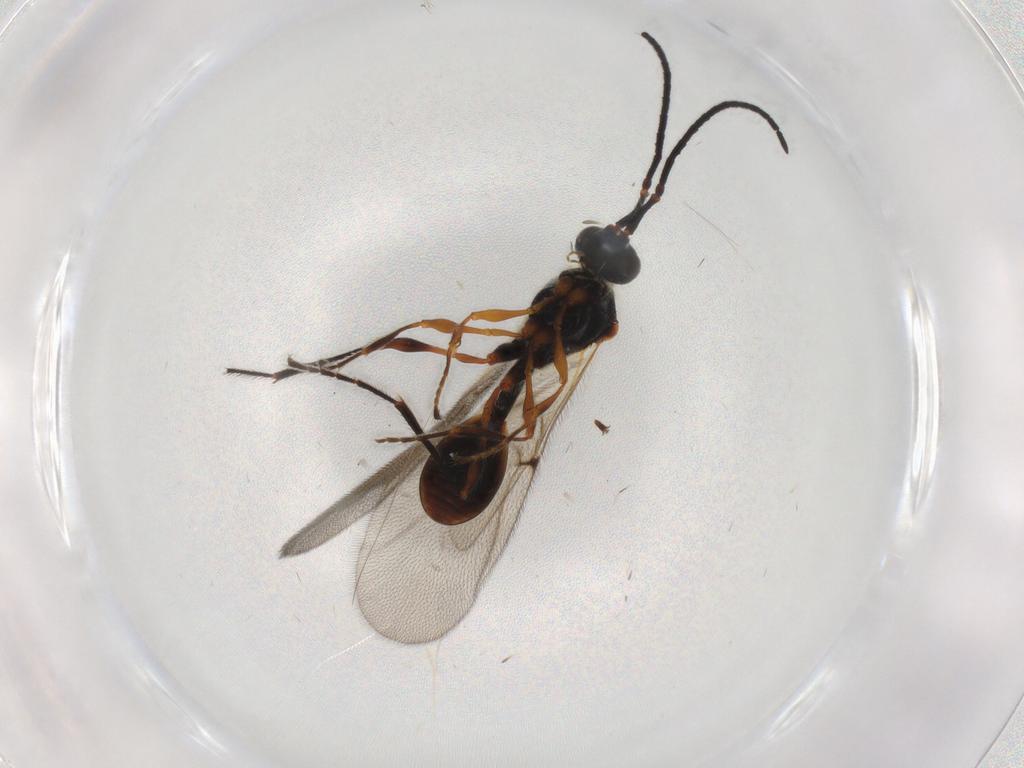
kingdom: Animalia
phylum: Arthropoda
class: Insecta
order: Hymenoptera
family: Diapriidae
